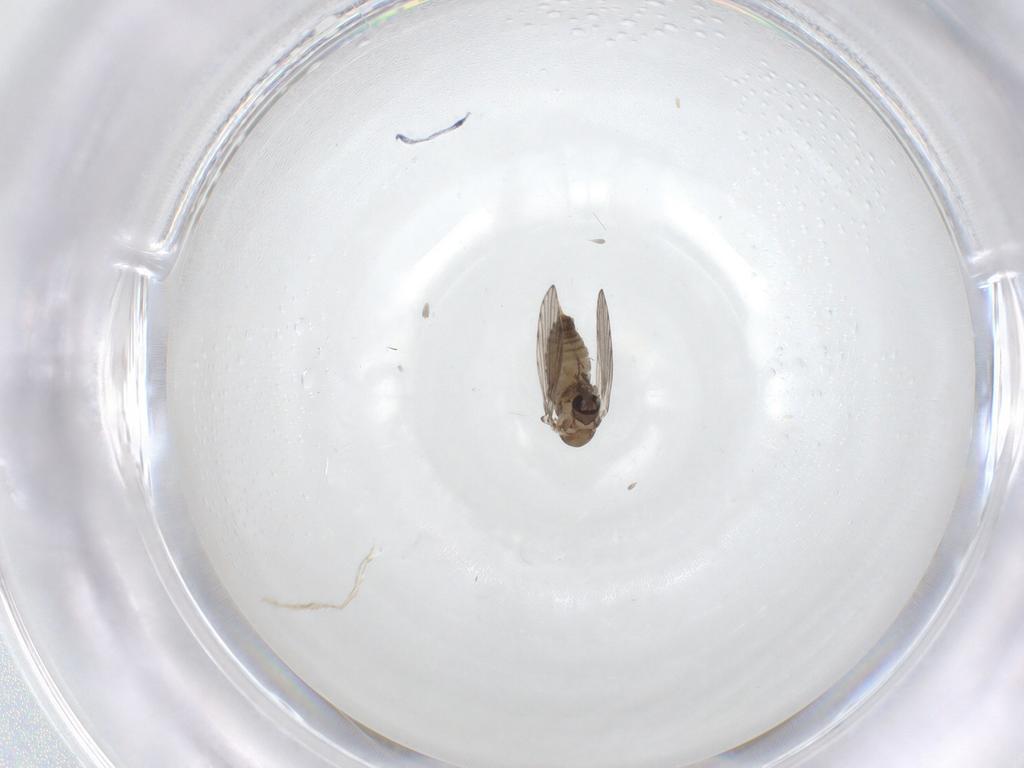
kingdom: Animalia
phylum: Arthropoda
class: Insecta
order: Diptera
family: Psychodidae
